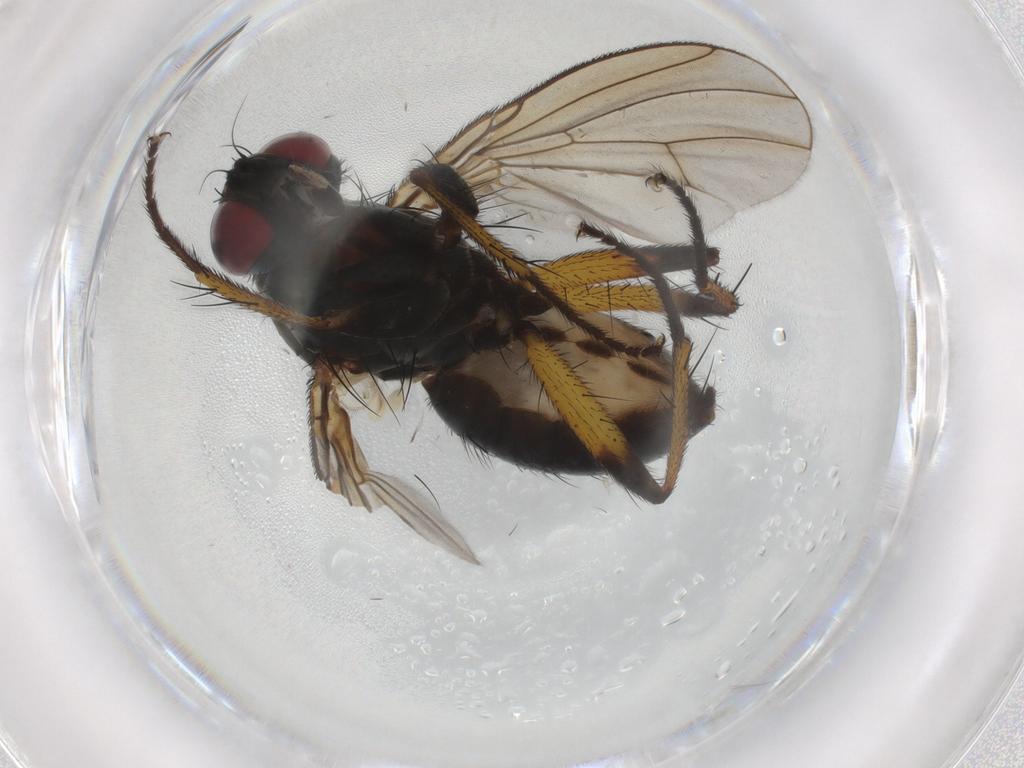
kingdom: Animalia
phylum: Arthropoda
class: Insecta
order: Diptera
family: Muscidae
